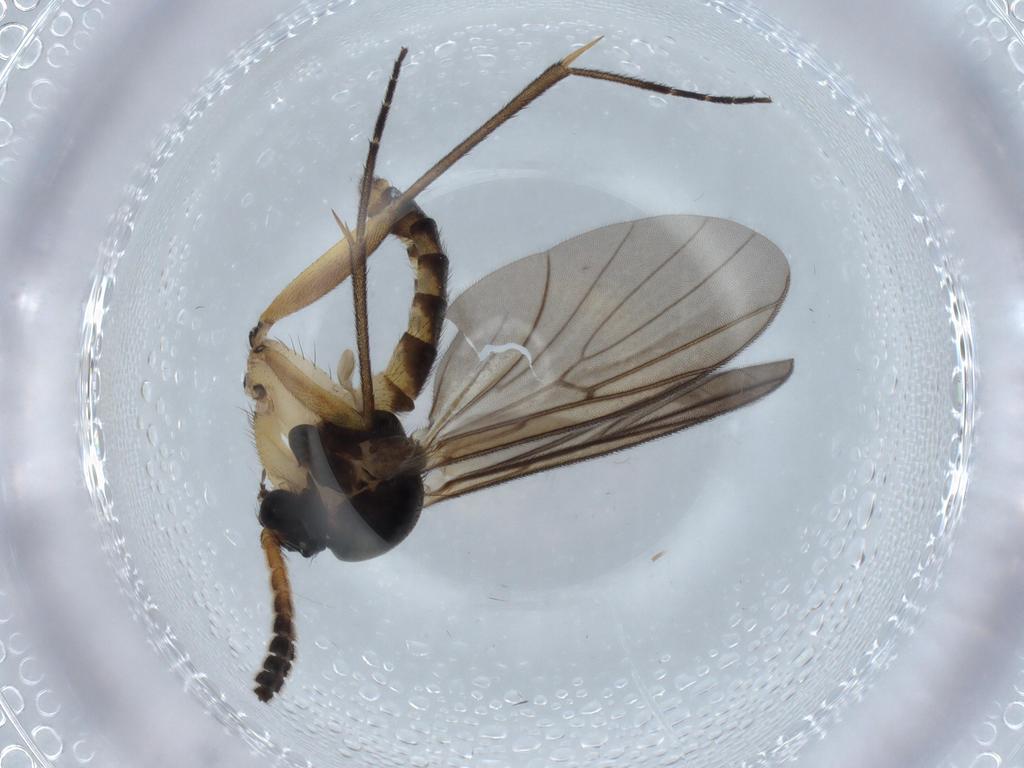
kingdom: Animalia
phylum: Arthropoda
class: Insecta
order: Diptera
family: Mycetophilidae
